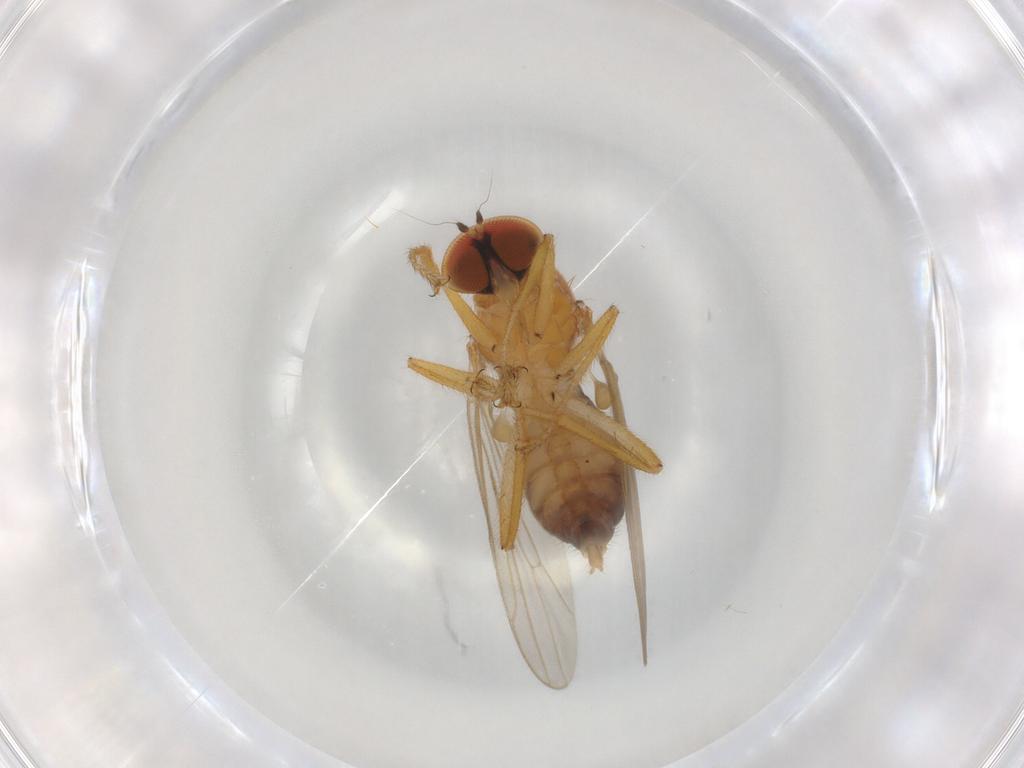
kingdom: Animalia
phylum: Arthropoda
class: Insecta
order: Diptera
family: Hybotidae
